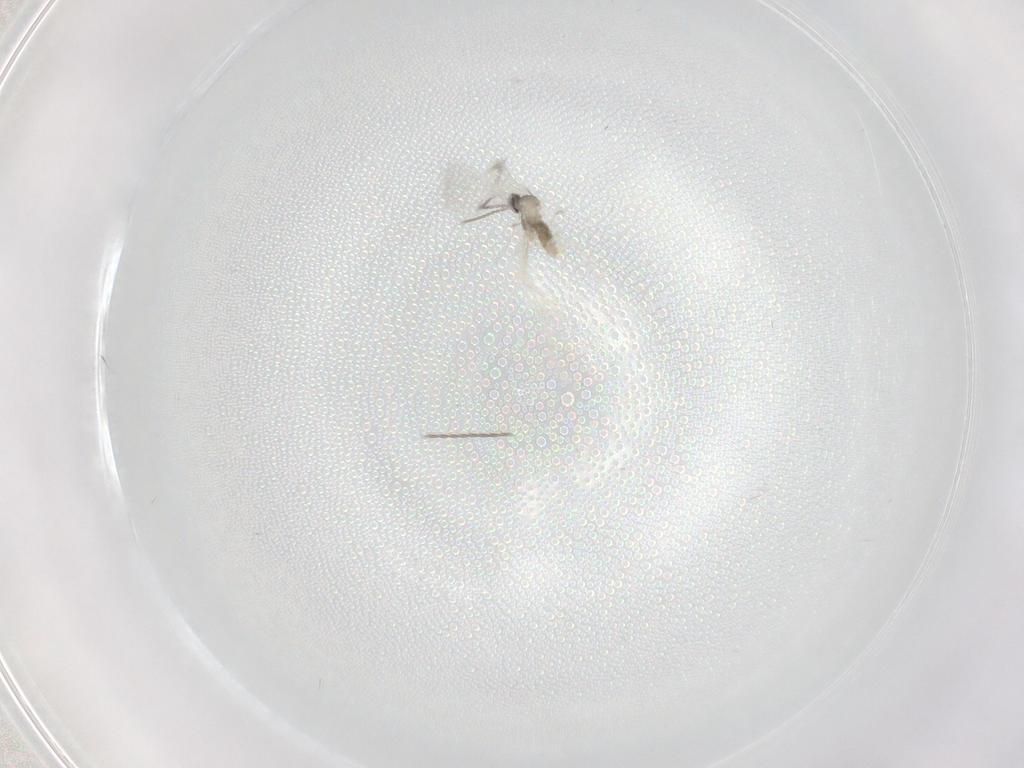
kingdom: Animalia
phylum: Arthropoda
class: Insecta
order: Diptera
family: Cecidomyiidae
